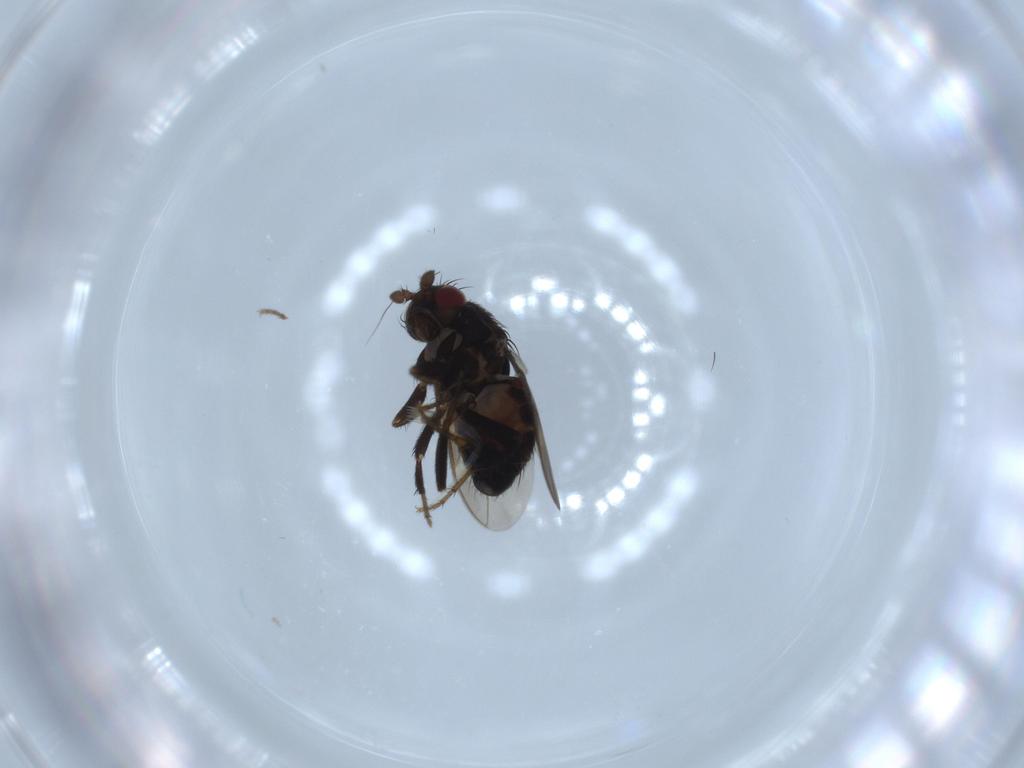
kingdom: Animalia
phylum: Arthropoda
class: Insecta
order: Diptera
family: Sphaeroceridae
